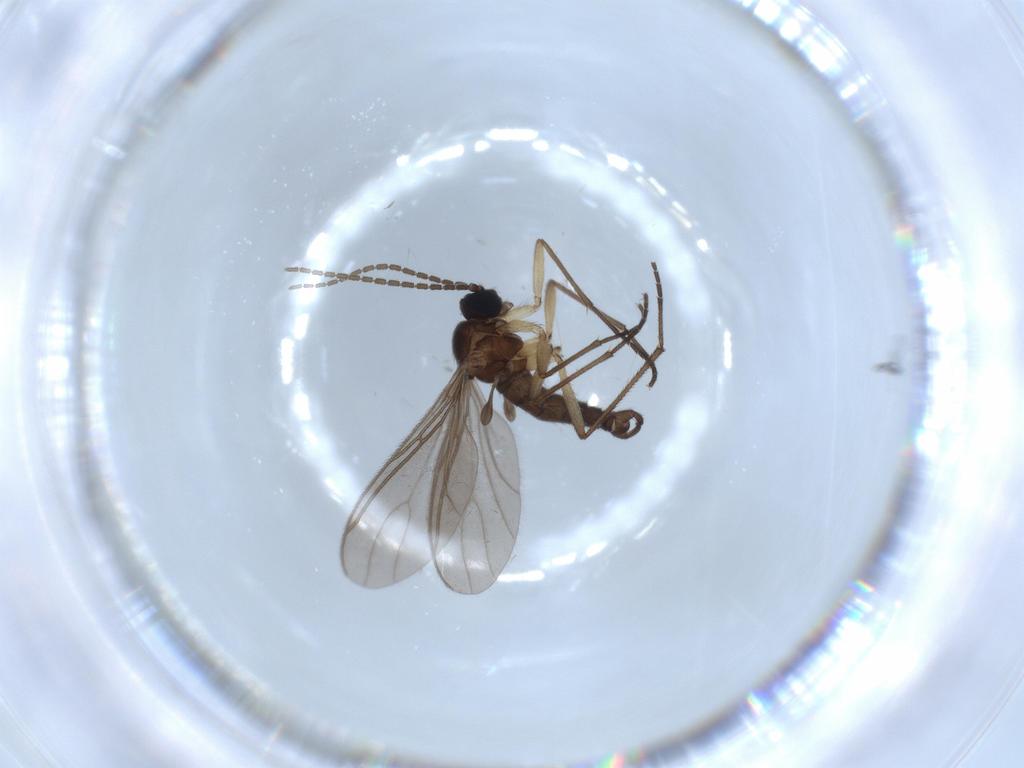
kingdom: Animalia
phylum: Arthropoda
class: Insecta
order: Diptera
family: Sciaridae
